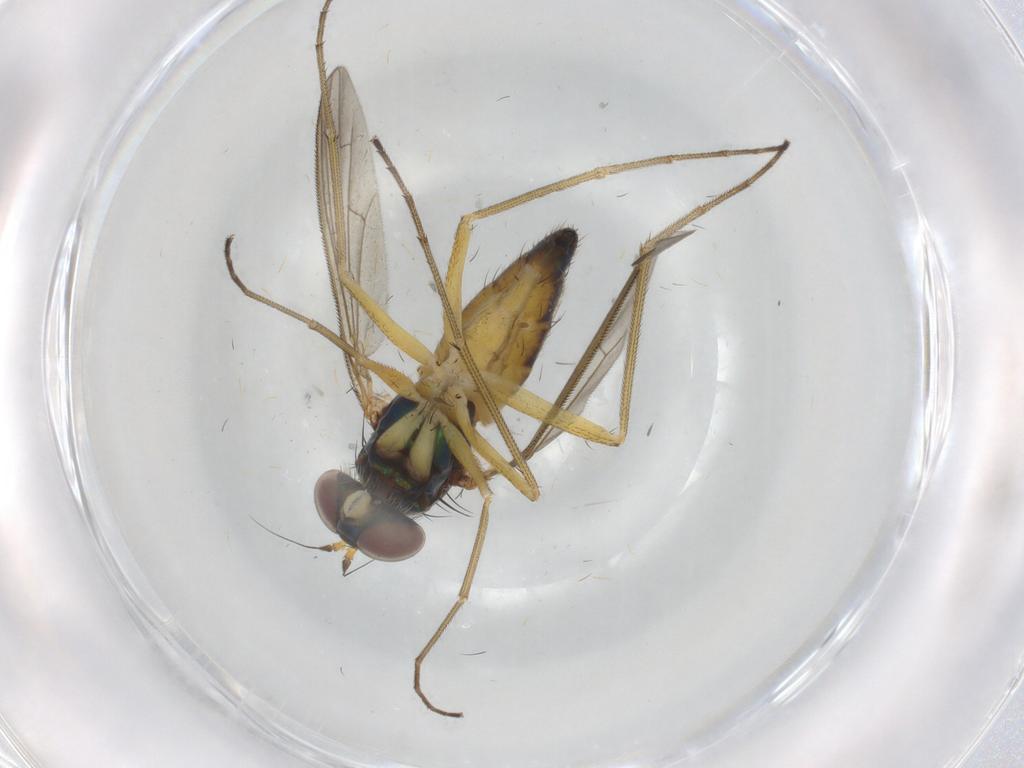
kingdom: Animalia
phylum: Arthropoda
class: Insecta
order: Diptera
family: Dolichopodidae
